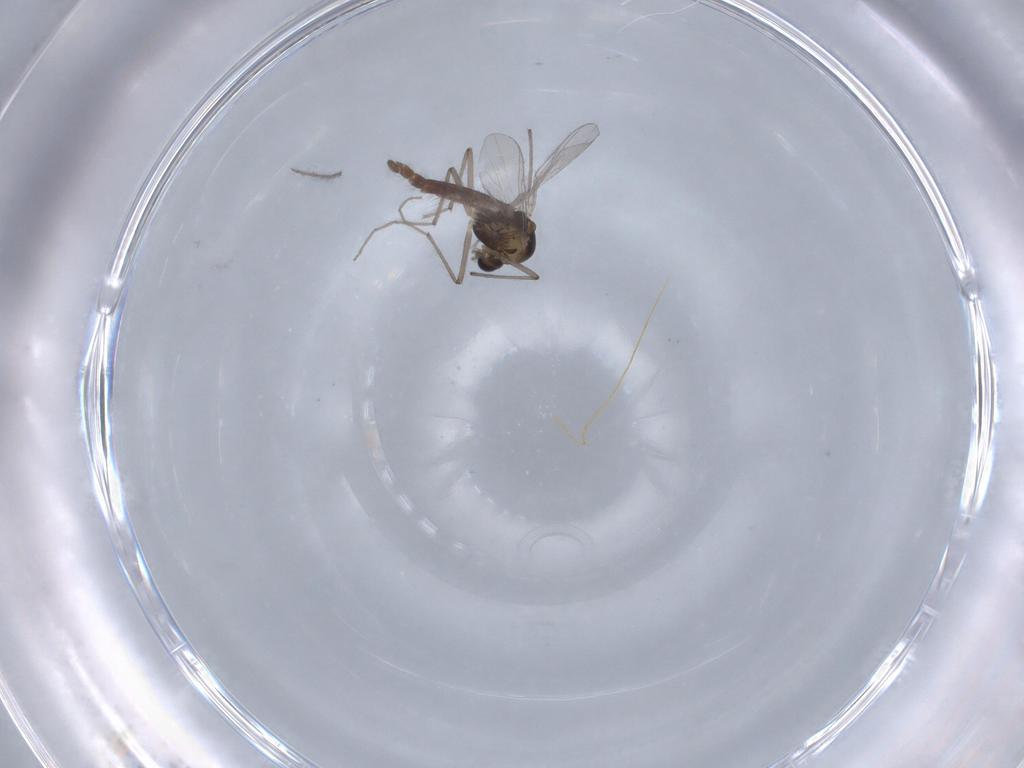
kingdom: Animalia
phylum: Arthropoda
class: Insecta
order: Diptera
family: Chironomidae
